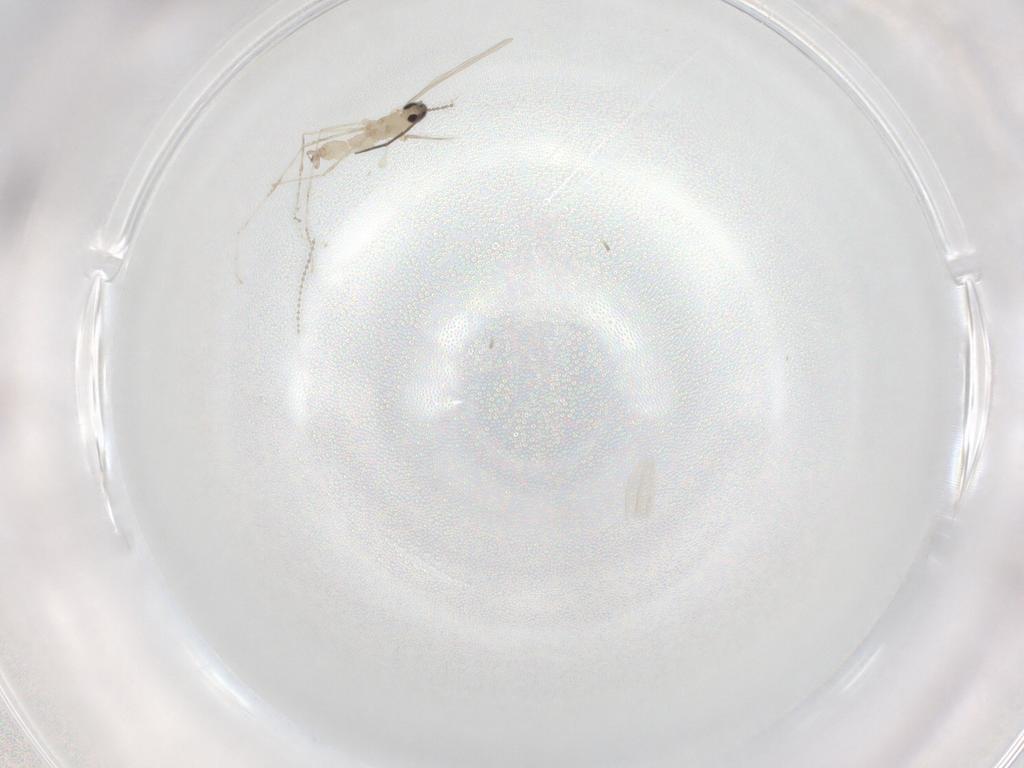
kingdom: Animalia
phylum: Arthropoda
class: Insecta
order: Diptera
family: Chironomidae
